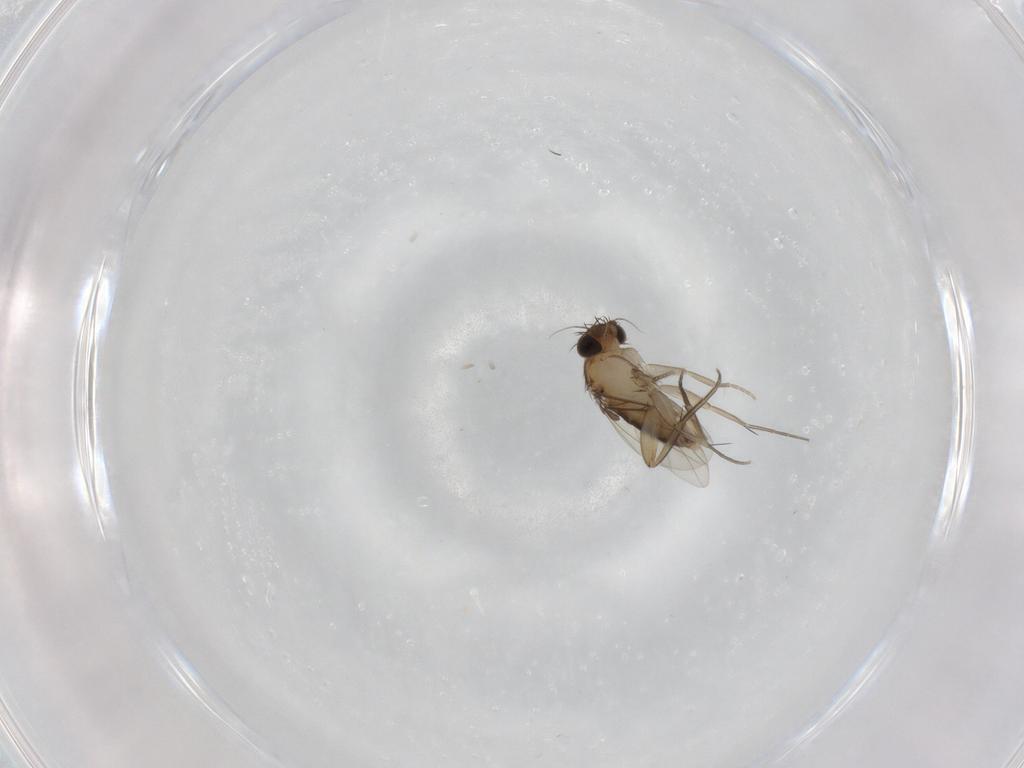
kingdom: Animalia
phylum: Arthropoda
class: Insecta
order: Diptera
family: Phoridae
